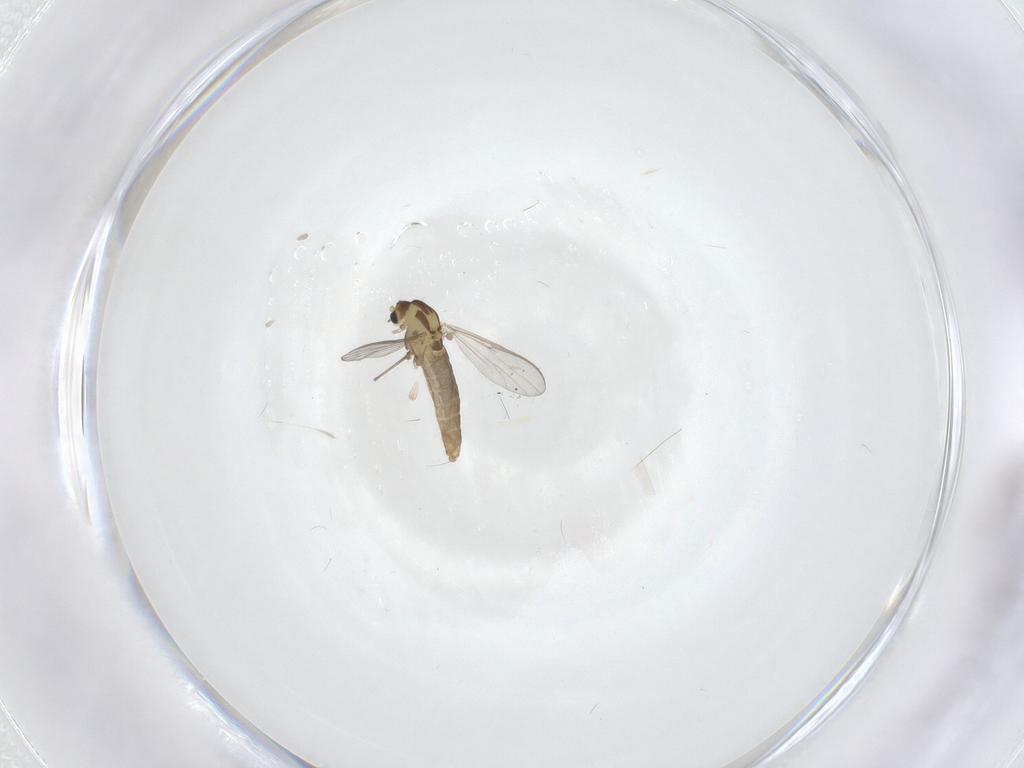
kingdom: Animalia
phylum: Arthropoda
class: Insecta
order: Diptera
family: Chironomidae
